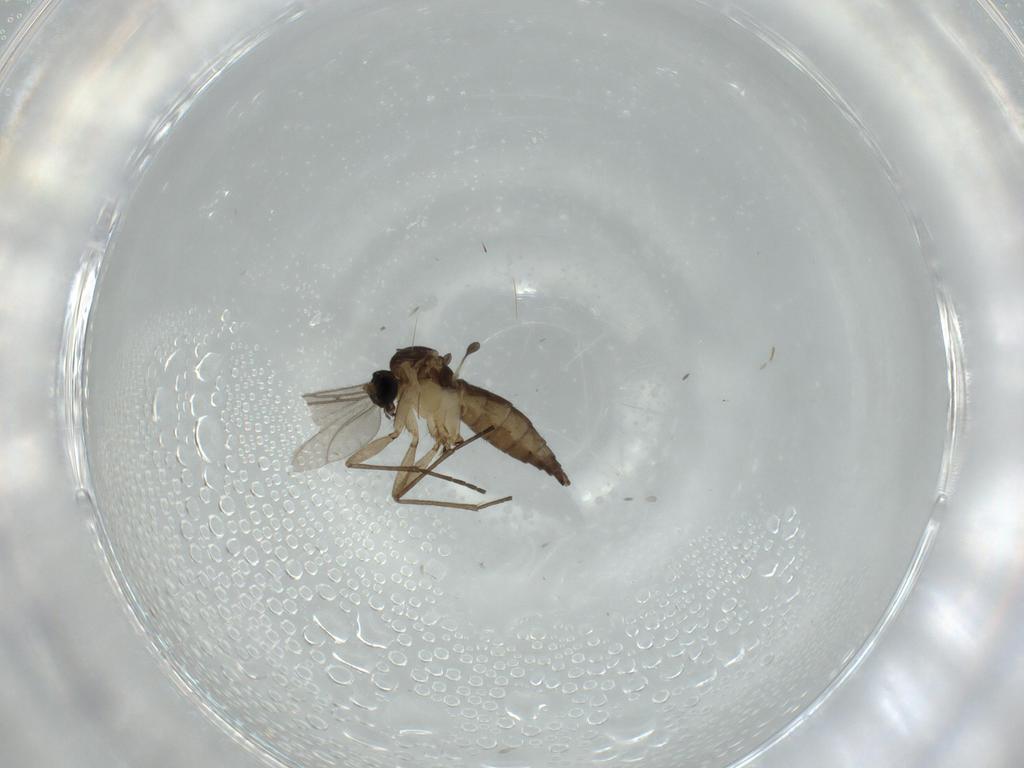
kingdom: Animalia
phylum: Arthropoda
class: Insecta
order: Diptera
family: Sciaridae
